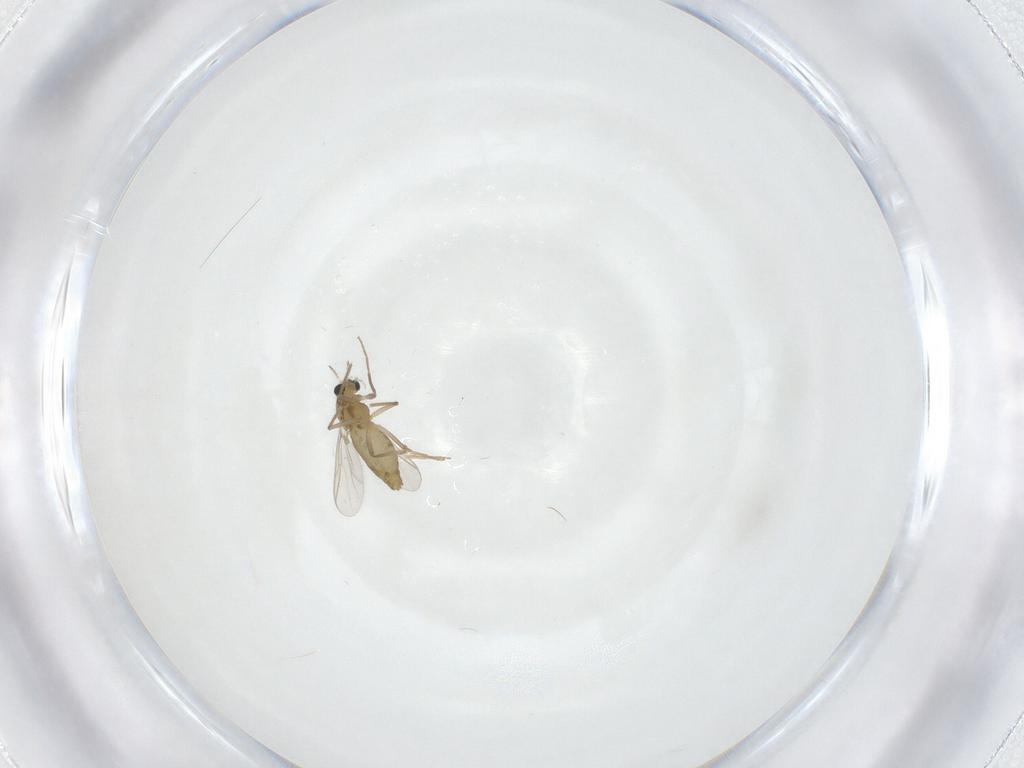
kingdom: Animalia
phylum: Arthropoda
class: Insecta
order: Diptera
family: Chironomidae
